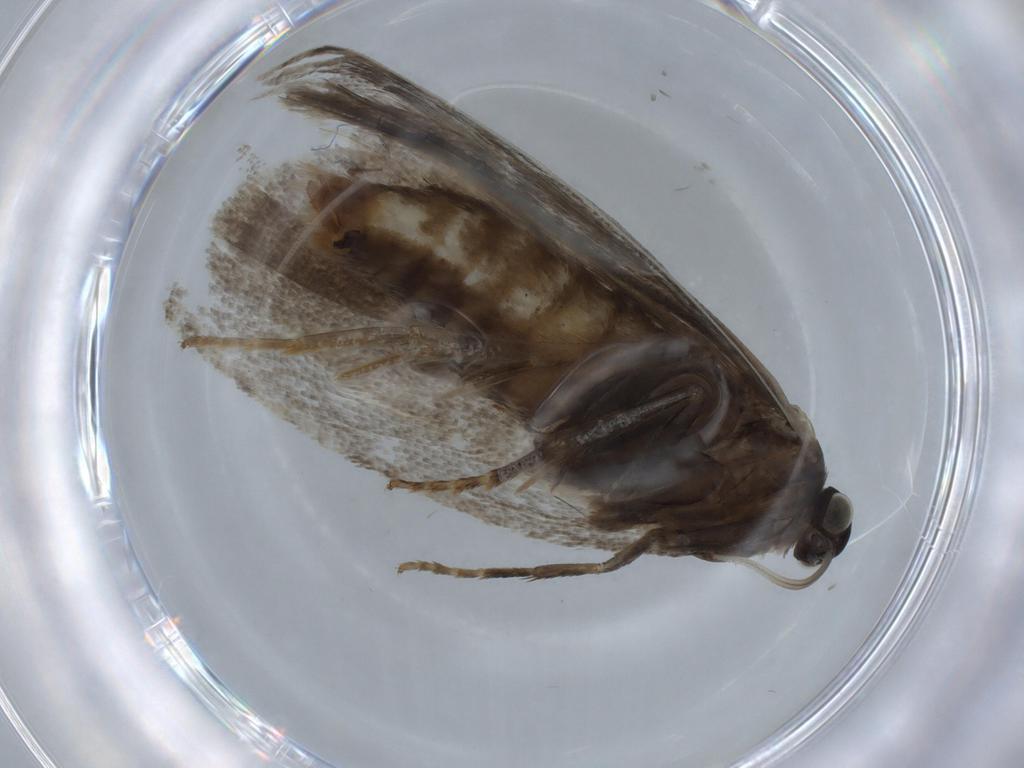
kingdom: Animalia
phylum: Arthropoda
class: Insecta
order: Lepidoptera
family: Tortricidae
